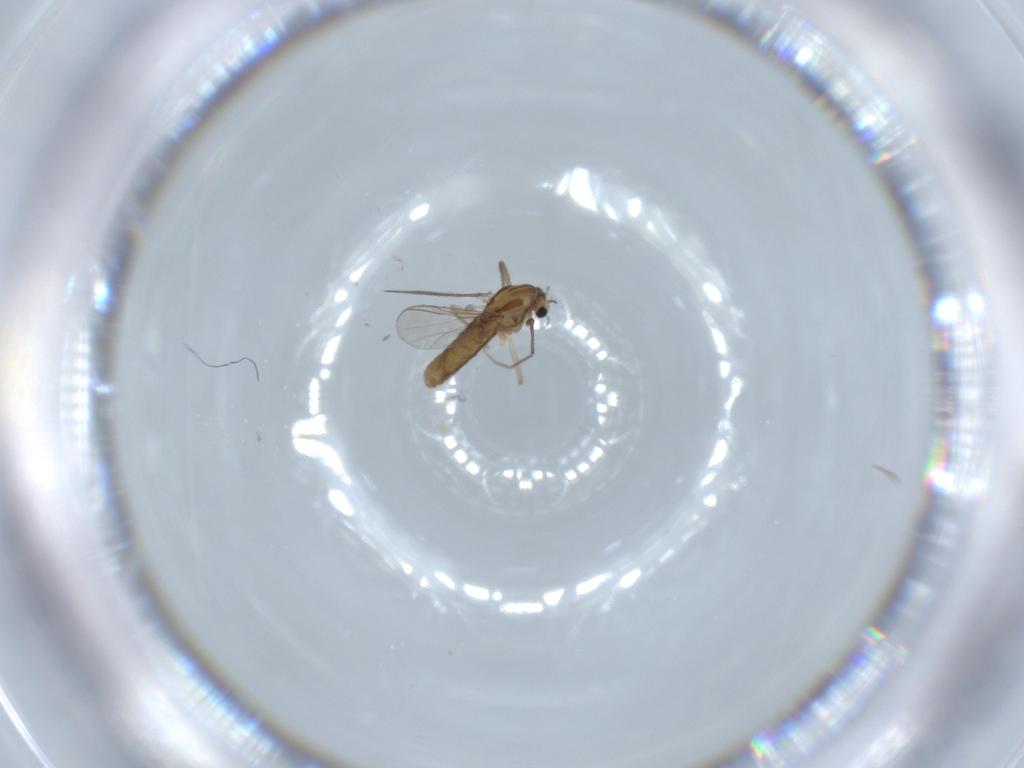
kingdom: Animalia
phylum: Arthropoda
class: Insecta
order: Diptera
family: Chironomidae
